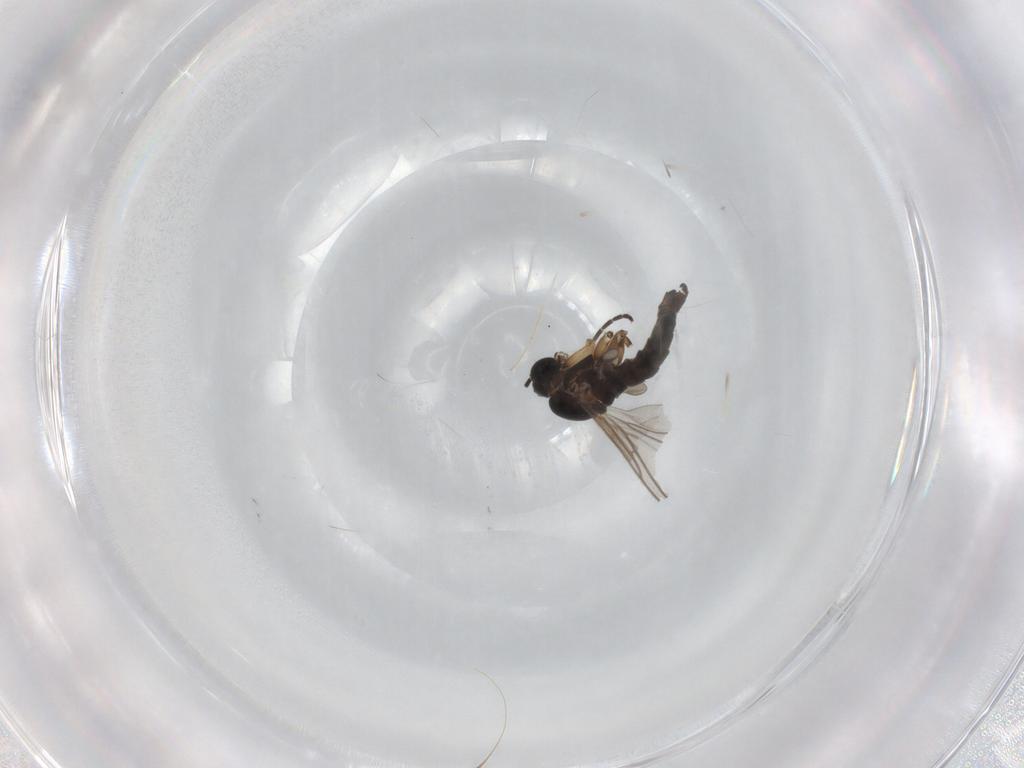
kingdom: Animalia
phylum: Arthropoda
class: Insecta
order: Diptera
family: Sciaridae
